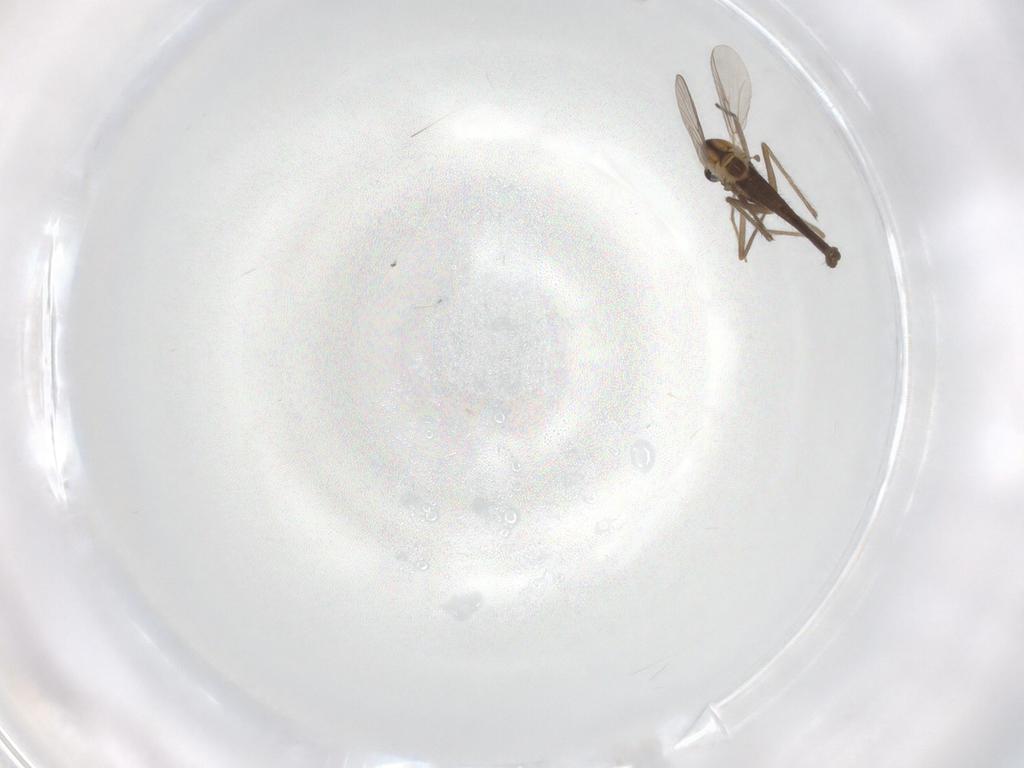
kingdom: Animalia
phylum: Arthropoda
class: Insecta
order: Diptera
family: Chironomidae
